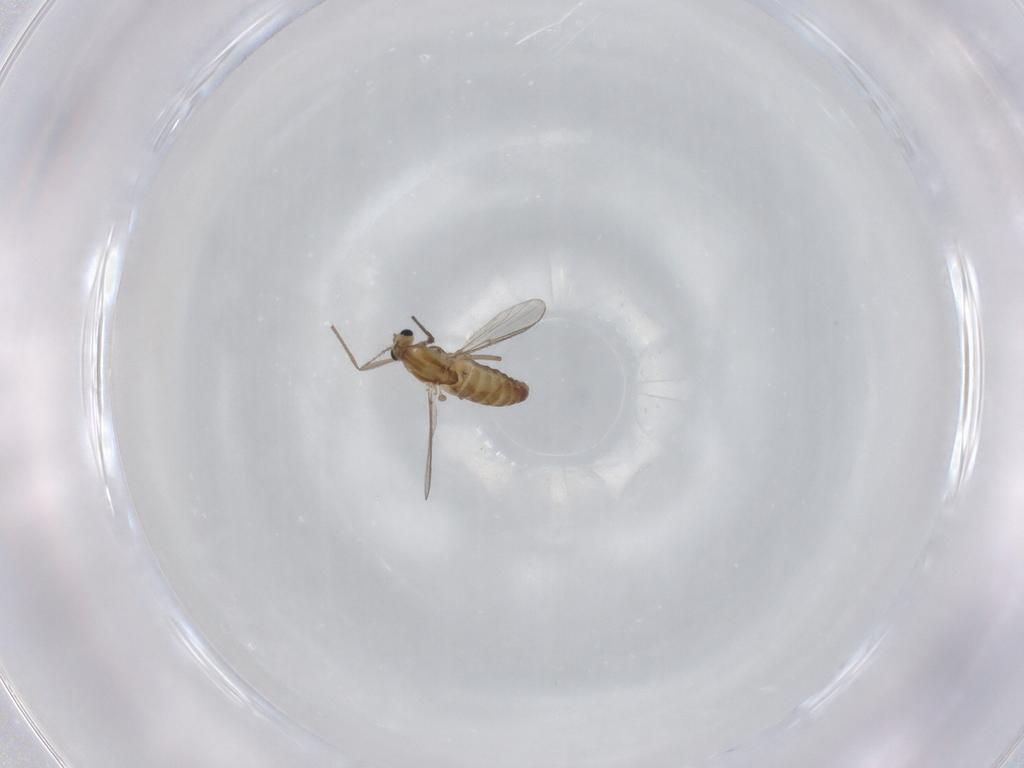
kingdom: Animalia
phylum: Arthropoda
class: Insecta
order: Diptera
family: Chironomidae
